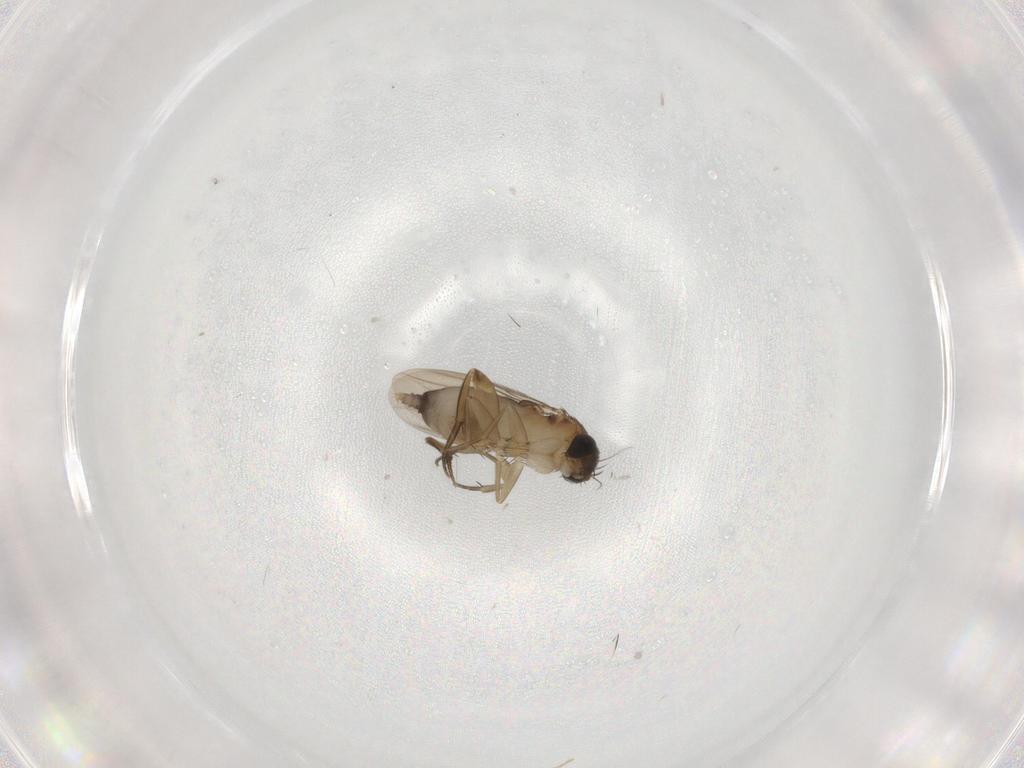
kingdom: Animalia
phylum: Arthropoda
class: Insecta
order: Diptera
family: Phoridae
